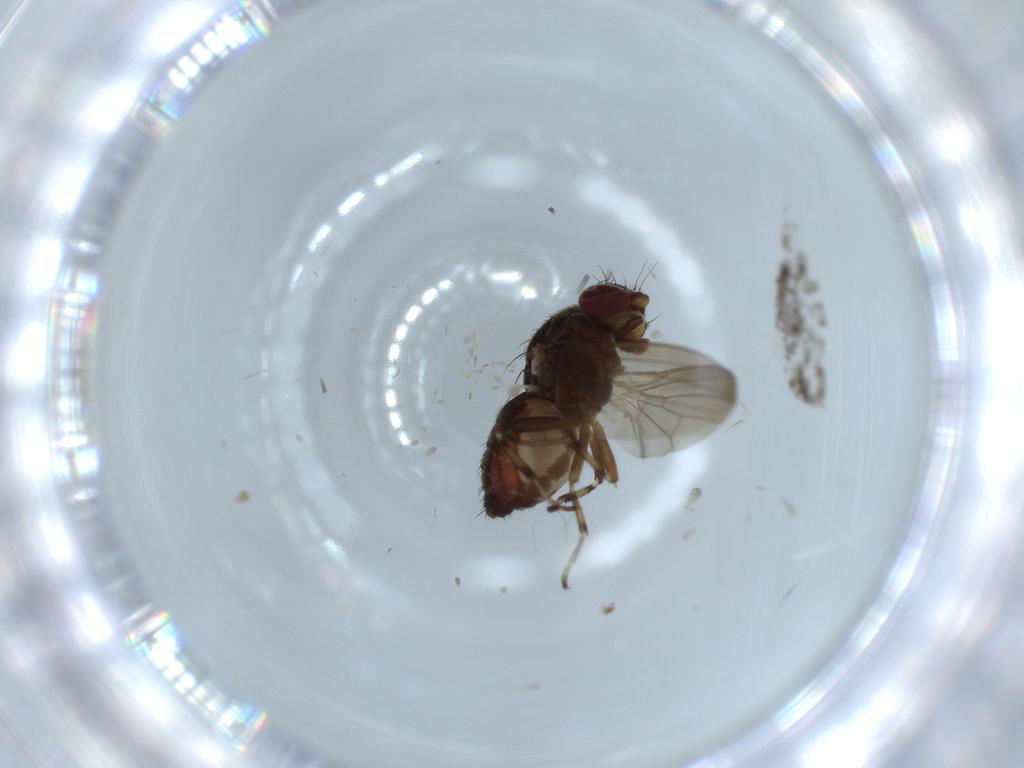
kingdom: Animalia
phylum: Arthropoda
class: Insecta
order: Diptera
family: Heleomyzidae
